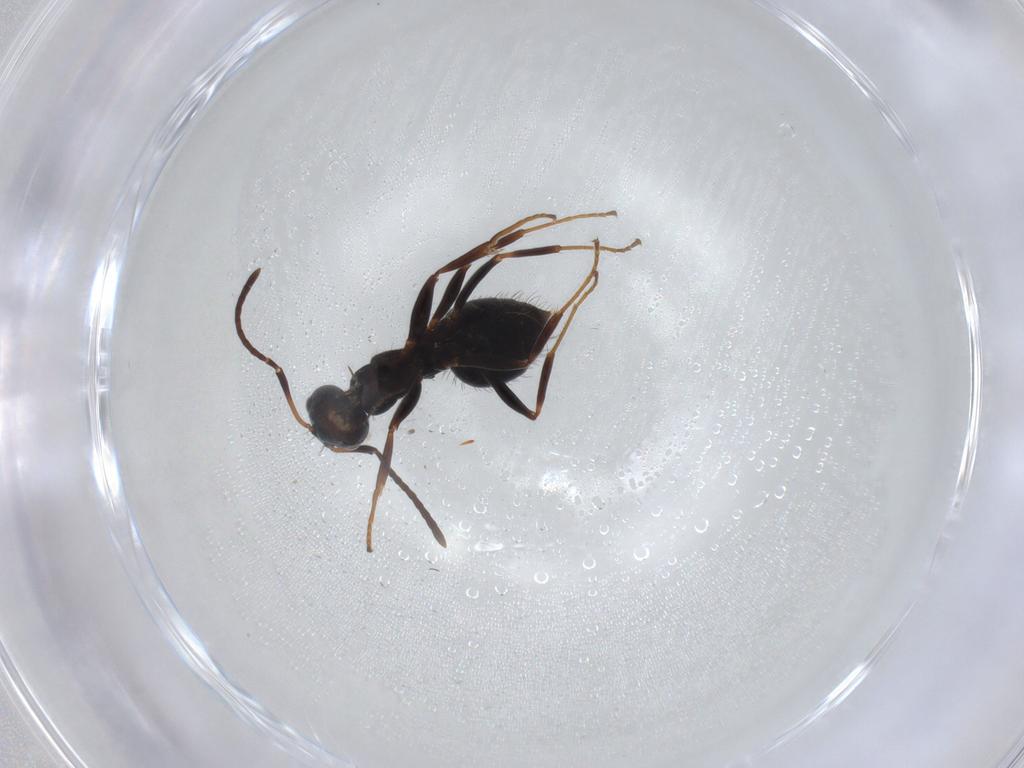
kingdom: Animalia
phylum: Arthropoda
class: Insecta
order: Hymenoptera
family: Formicidae
